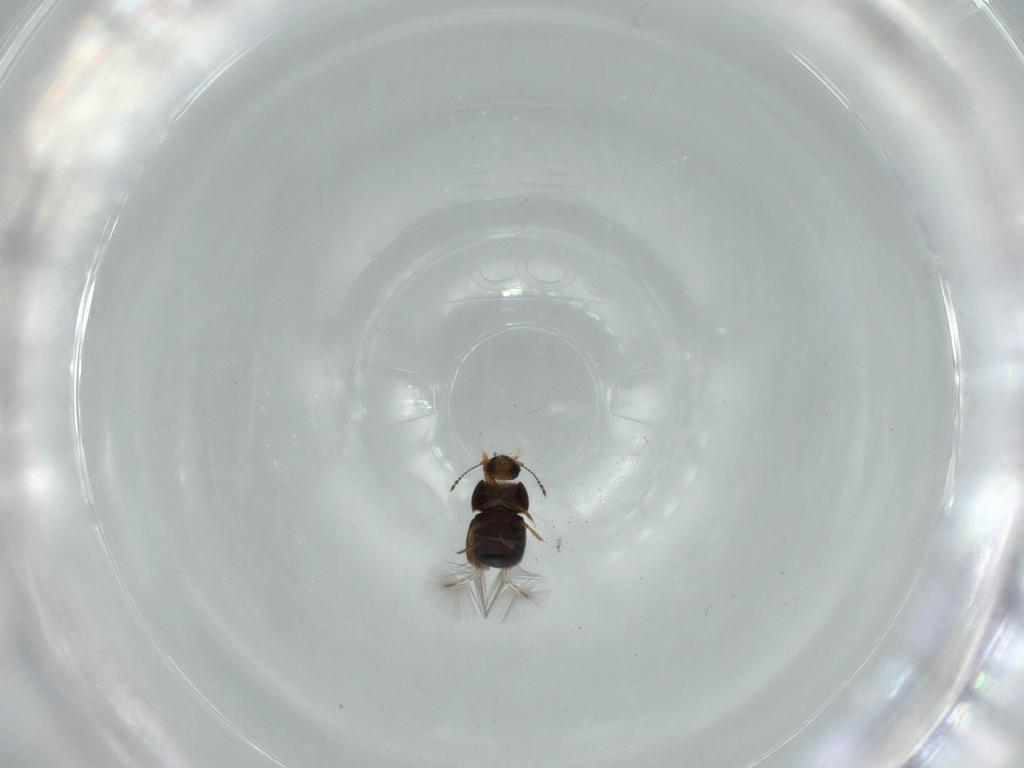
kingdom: Animalia
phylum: Arthropoda
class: Insecta
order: Coleoptera
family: Ptiliidae
